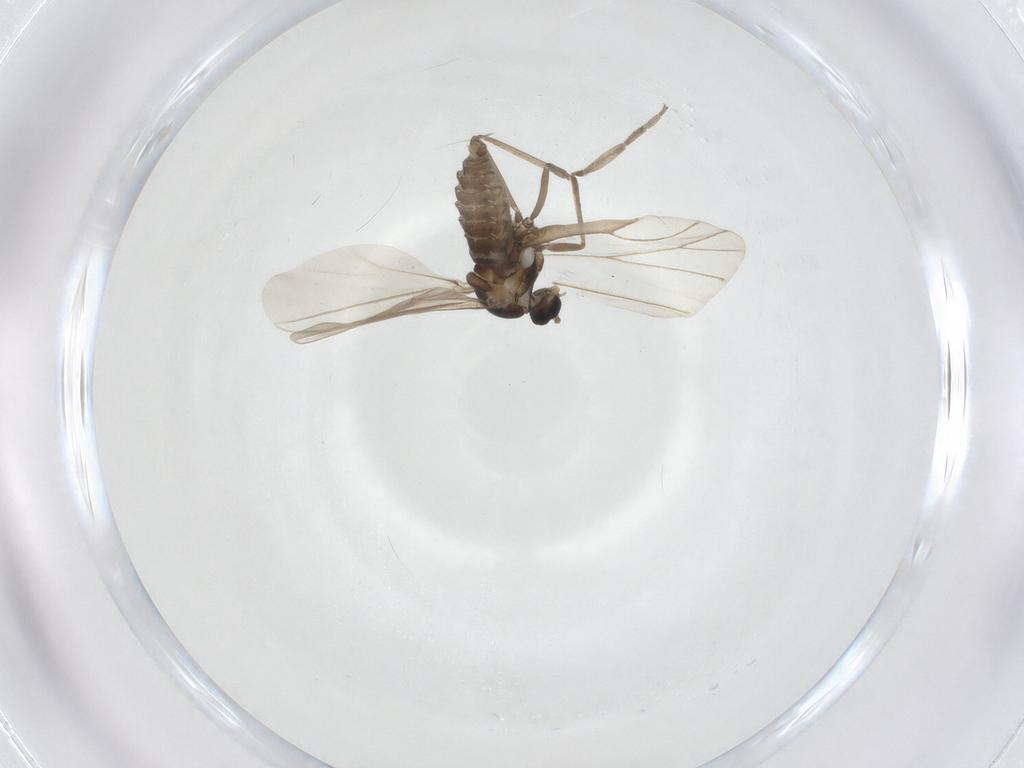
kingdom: Animalia
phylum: Arthropoda
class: Insecta
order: Diptera
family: Cecidomyiidae
